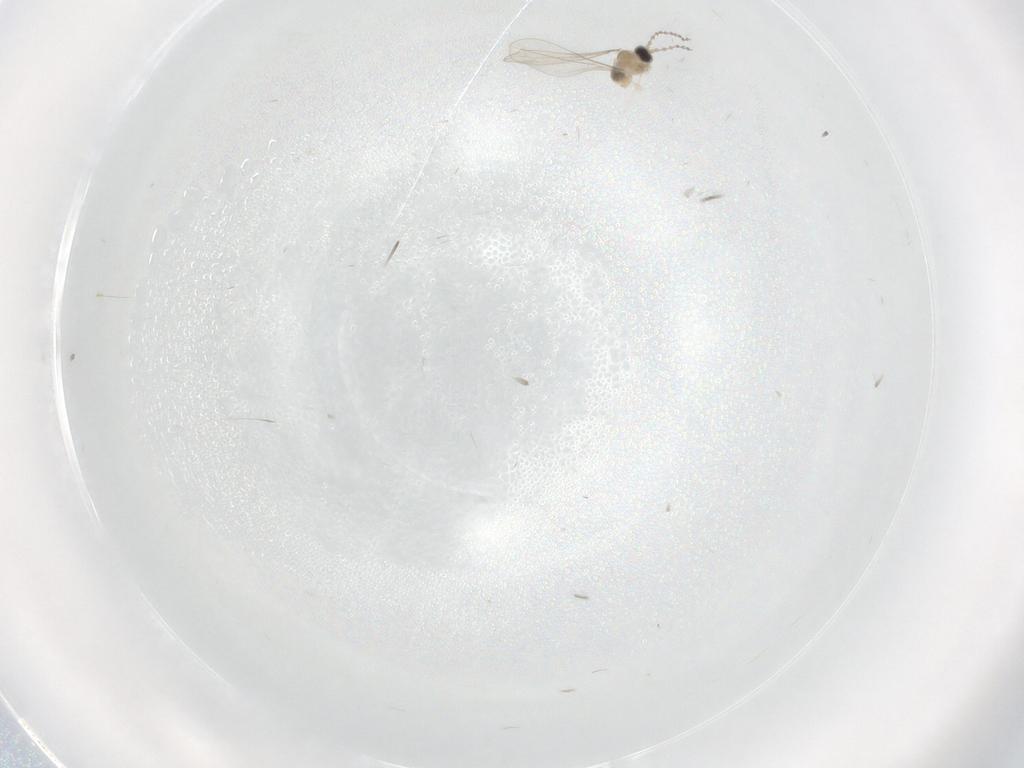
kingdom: Animalia
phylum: Arthropoda
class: Insecta
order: Diptera
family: Cecidomyiidae
